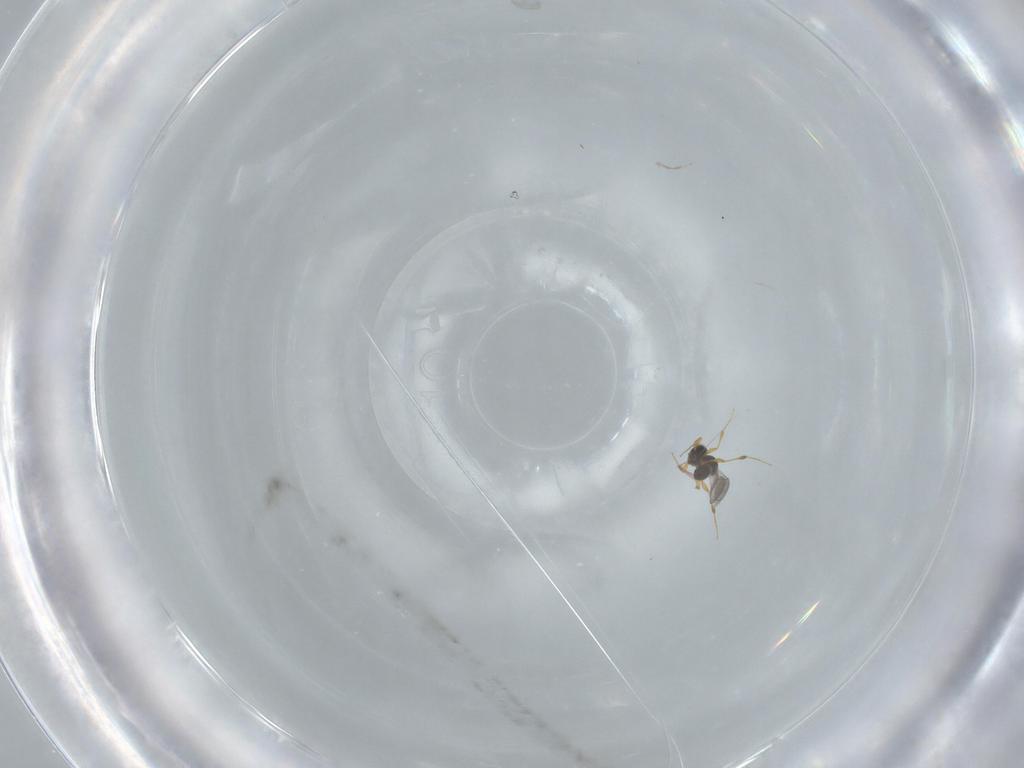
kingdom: Animalia
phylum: Arthropoda
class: Insecta
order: Hymenoptera
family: Platygastridae
